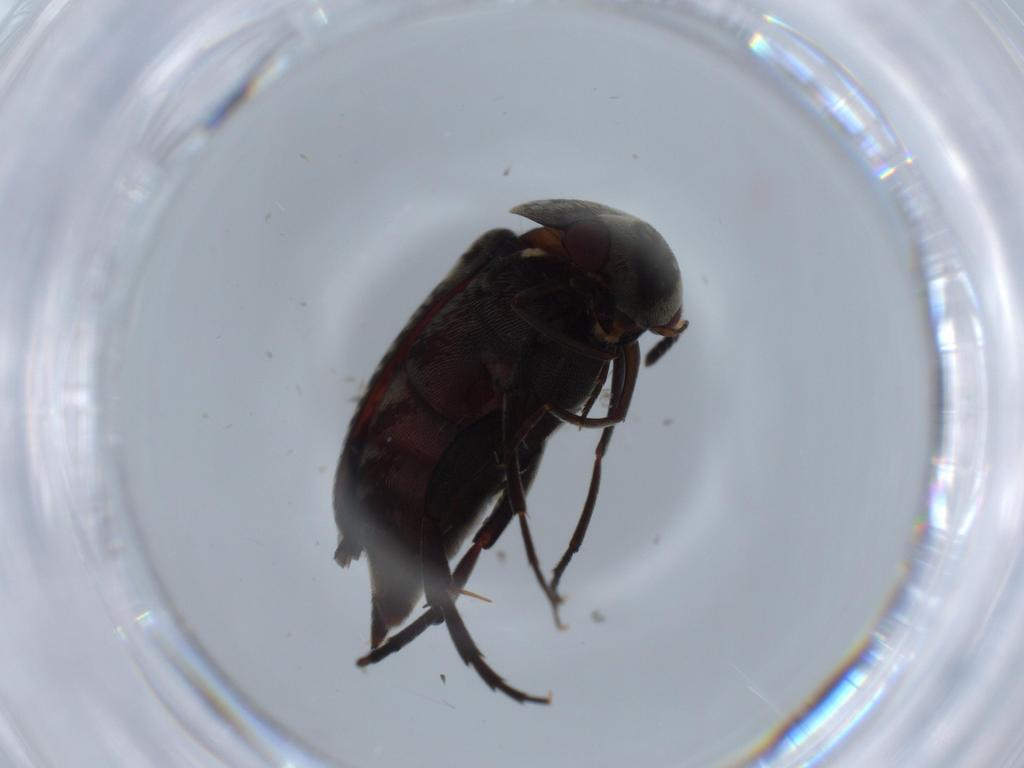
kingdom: Animalia
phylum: Arthropoda
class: Insecta
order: Coleoptera
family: Chrysomelidae
